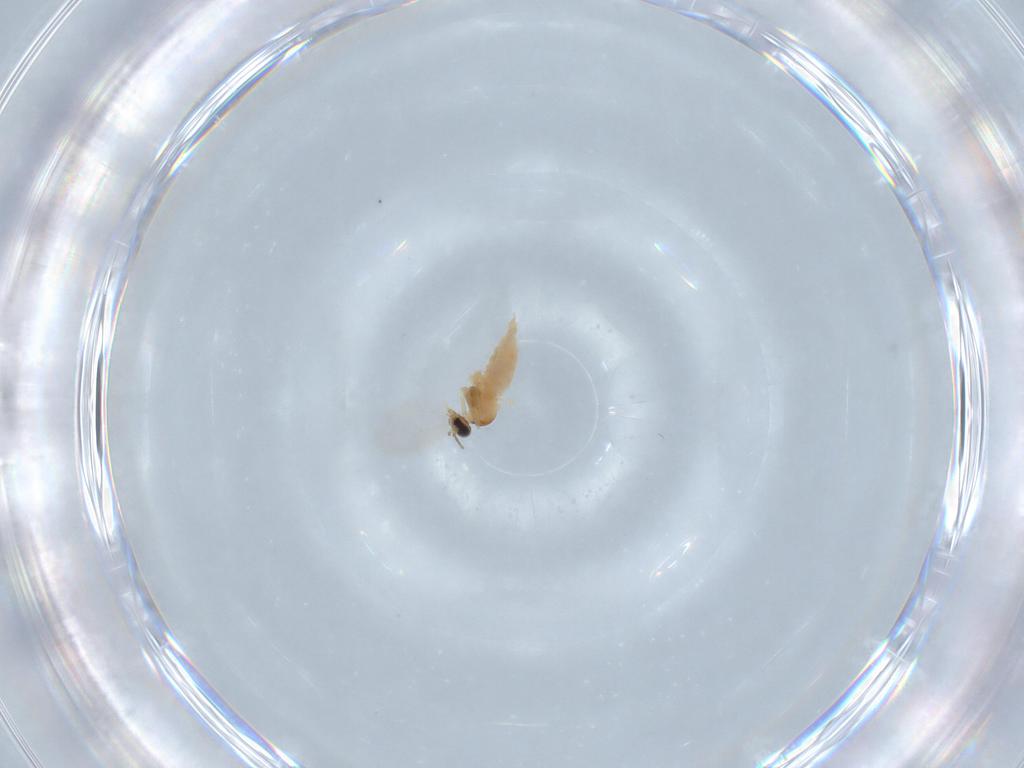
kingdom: Animalia
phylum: Arthropoda
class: Insecta
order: Diptera
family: Cecidomyiidae
